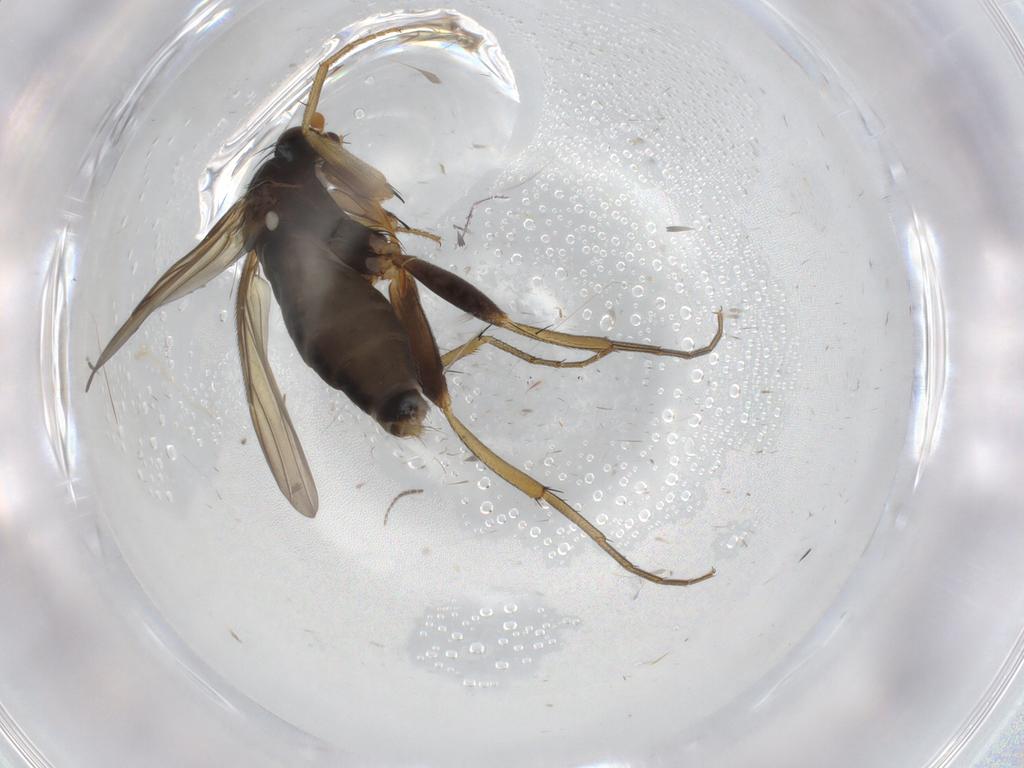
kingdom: Animalia
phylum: Arthropoda
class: Insecta
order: Diptera
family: Phoridae
